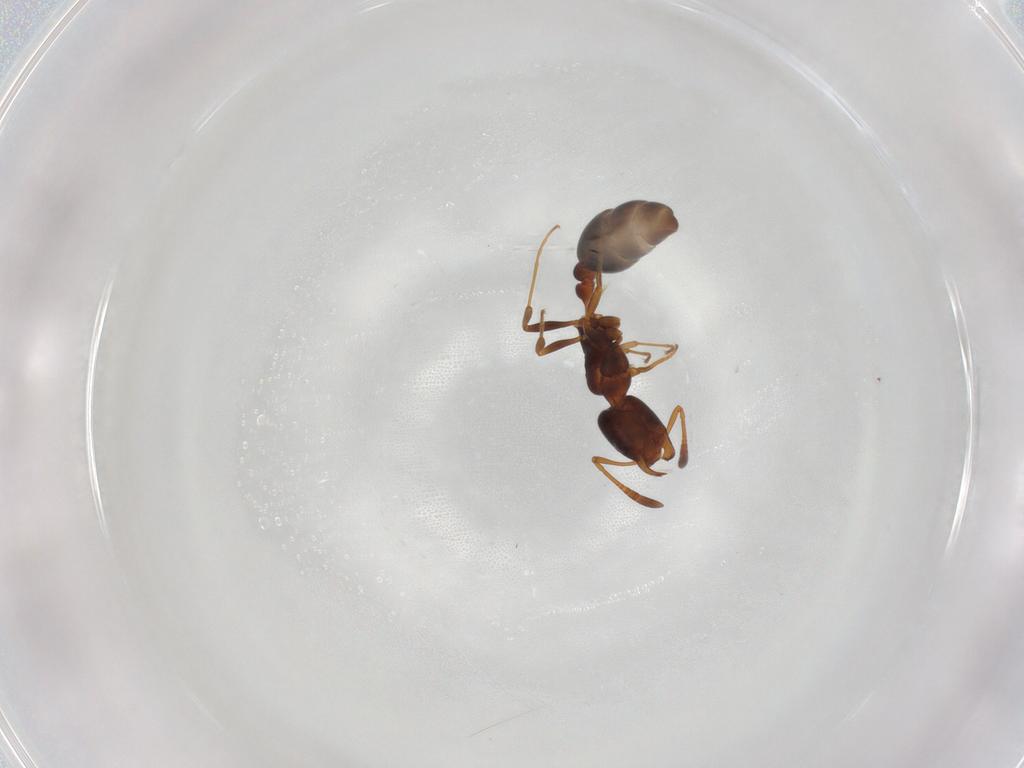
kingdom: Animalia
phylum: Arthropoda
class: Insecta
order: Hymenoptera
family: Formicidae
